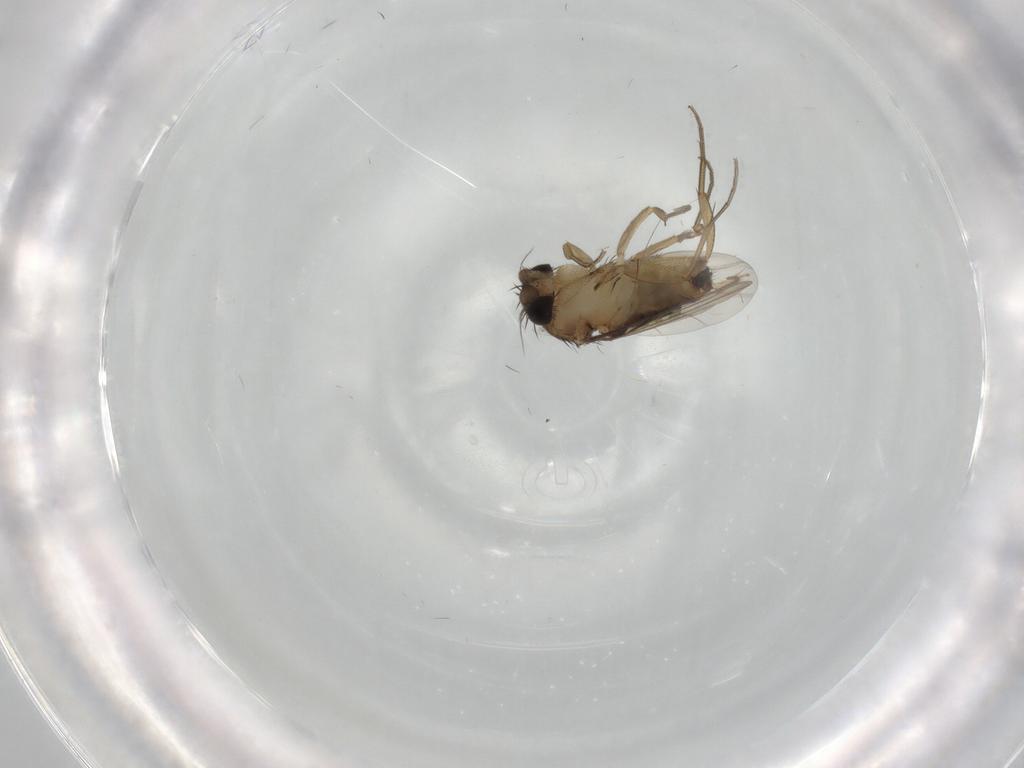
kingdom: Animalia
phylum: Arthropoda
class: Insecta
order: Diptera
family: Phoridae
